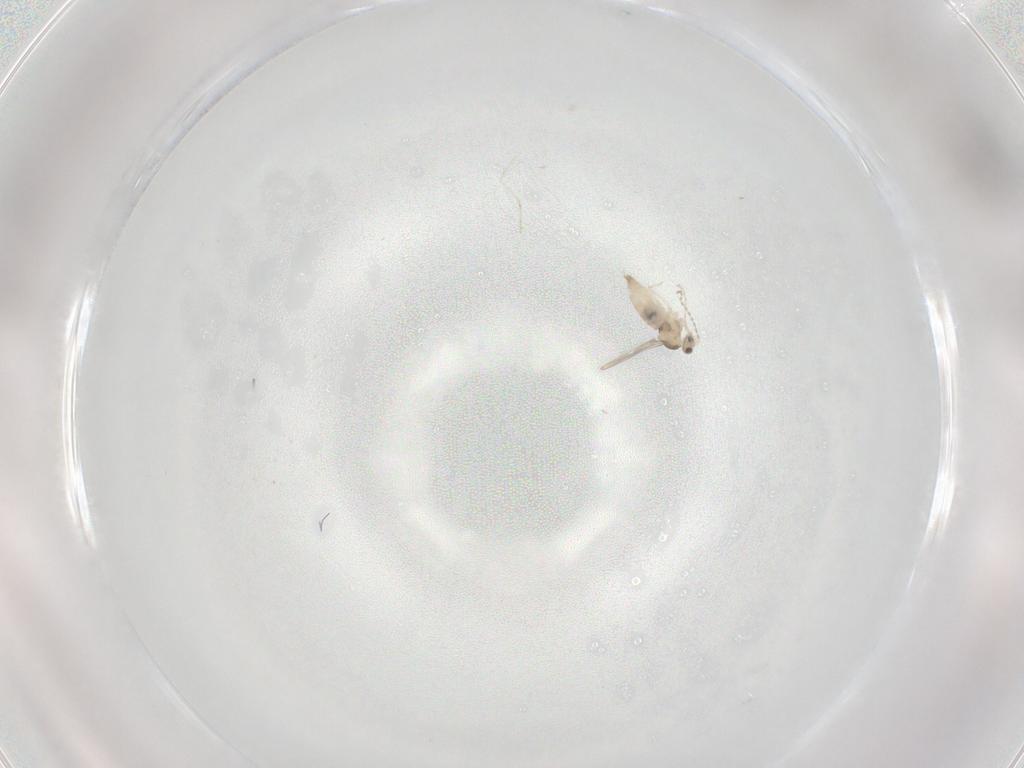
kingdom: Animalia
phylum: Arthropoda
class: Insecta
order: Diptera
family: Cecidomyiidae
